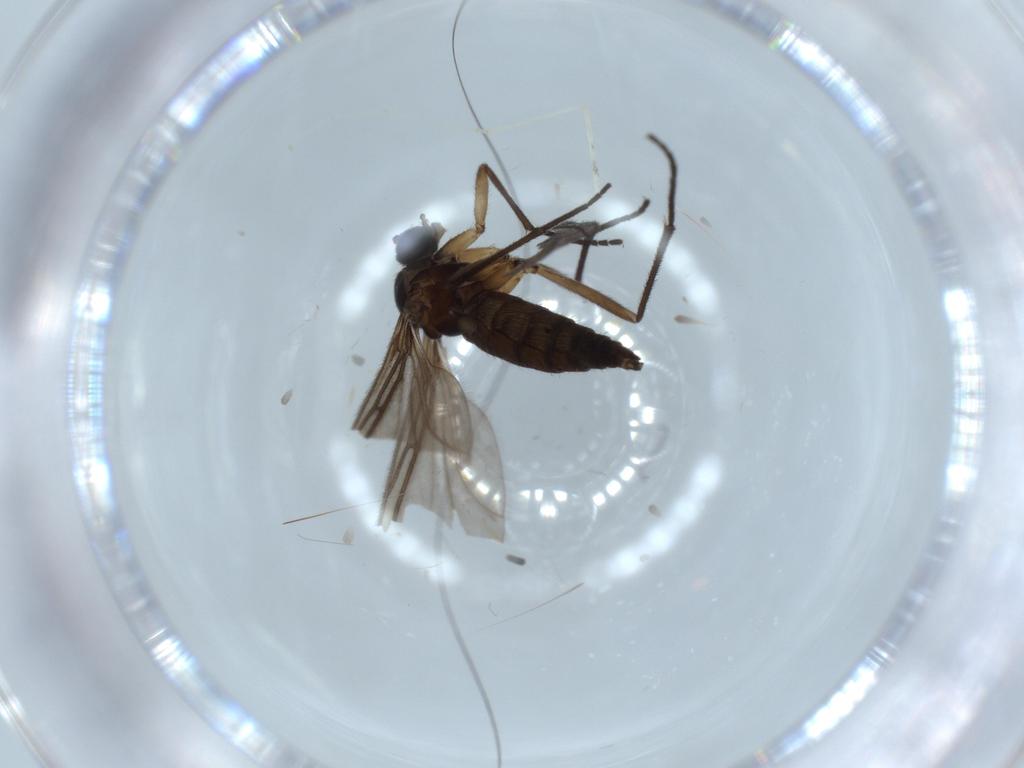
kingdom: Animalia
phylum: Arthropoda
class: Insecta
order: Diptera
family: Sciaridae
